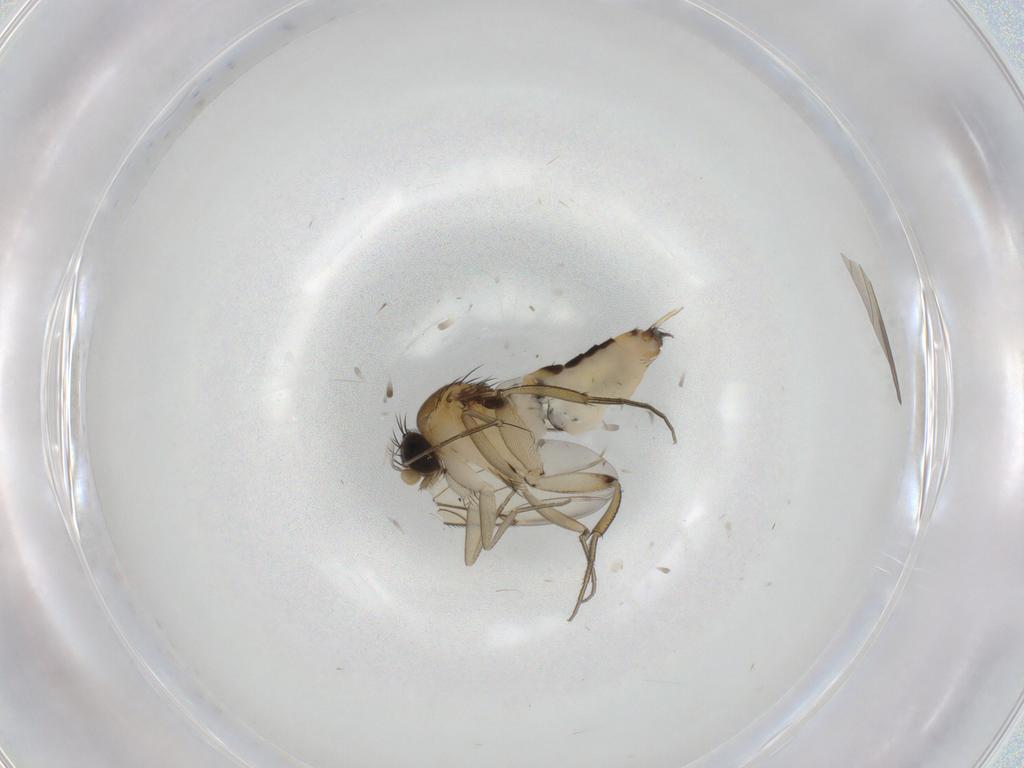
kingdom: Animalia
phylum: Arthropoda
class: Insecta
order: Diptera
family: Phoridae
